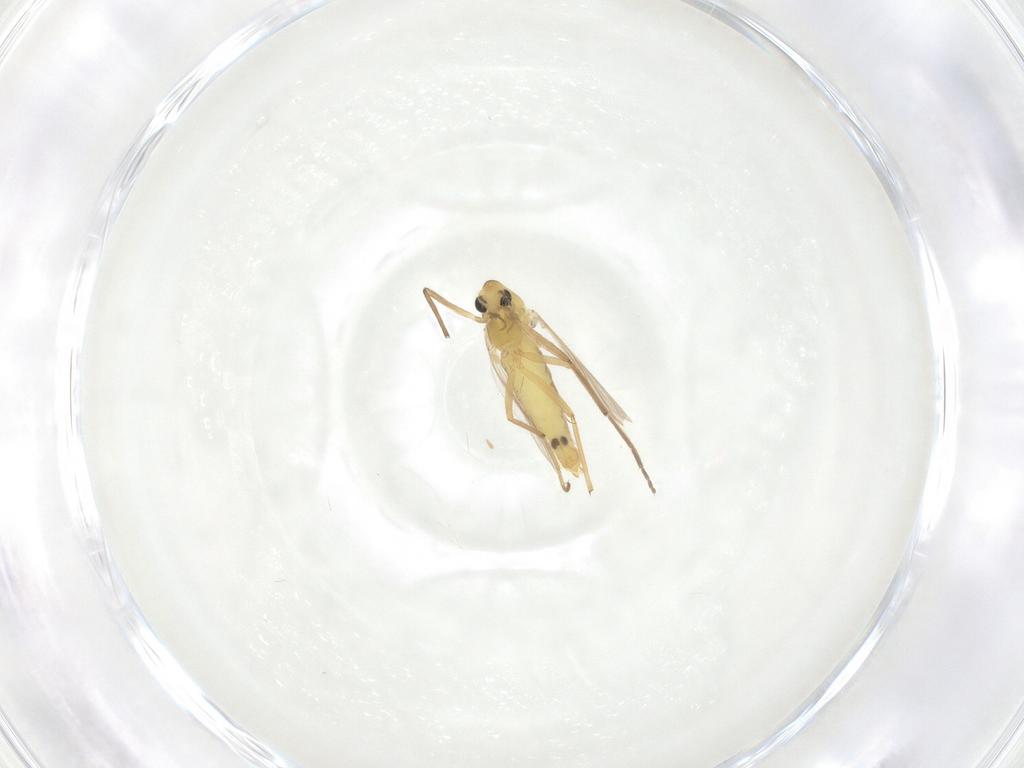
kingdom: Animalia
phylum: Arthropoda
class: Insecta
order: Diptera
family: Chironomidae
